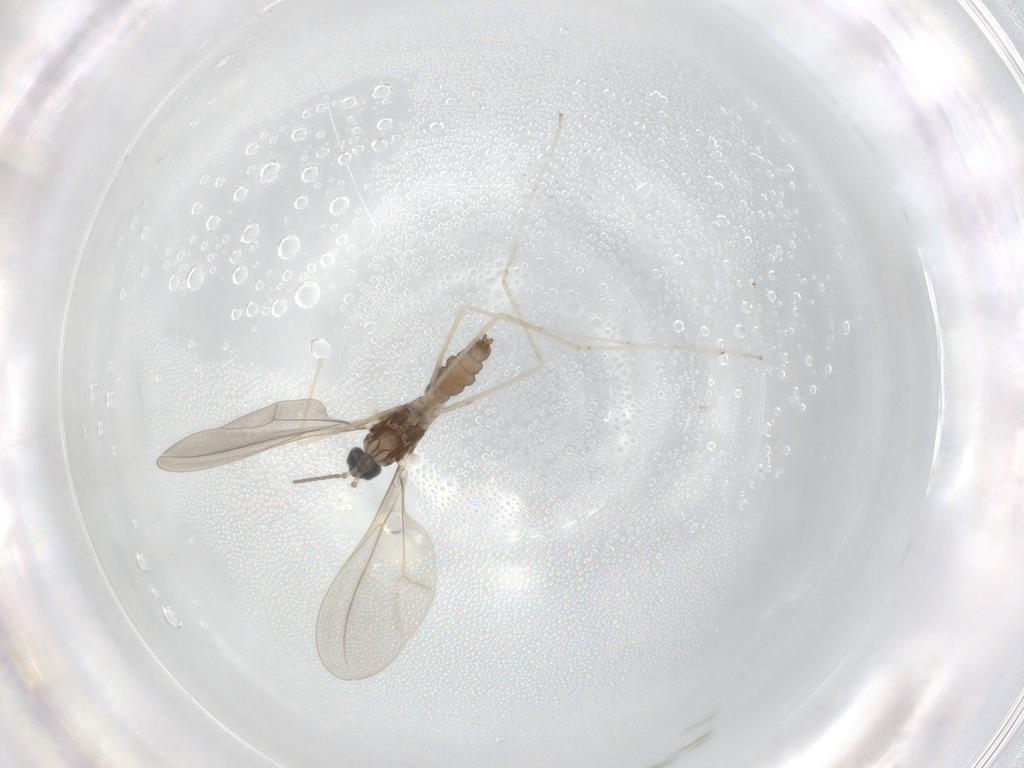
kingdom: Animalia
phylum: Arthropoda
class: Insecta
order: Diptera
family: Cecidomyiidae
